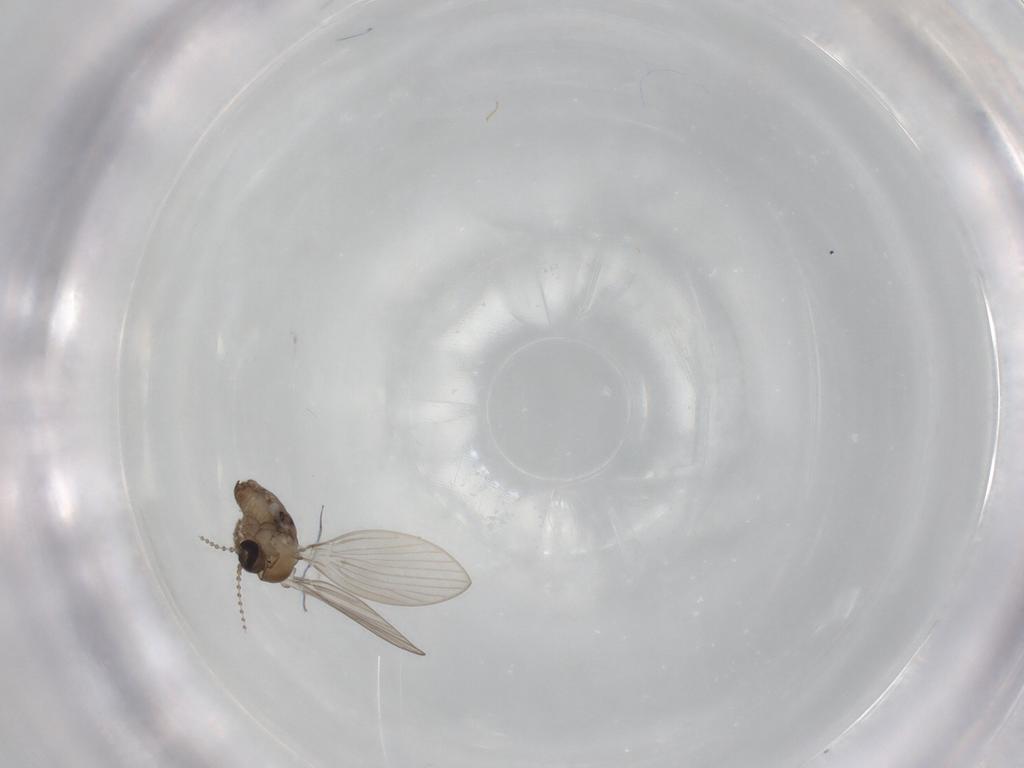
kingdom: Animalia
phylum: Arthropoda
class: Insecta
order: Diptera
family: Psychodidae
